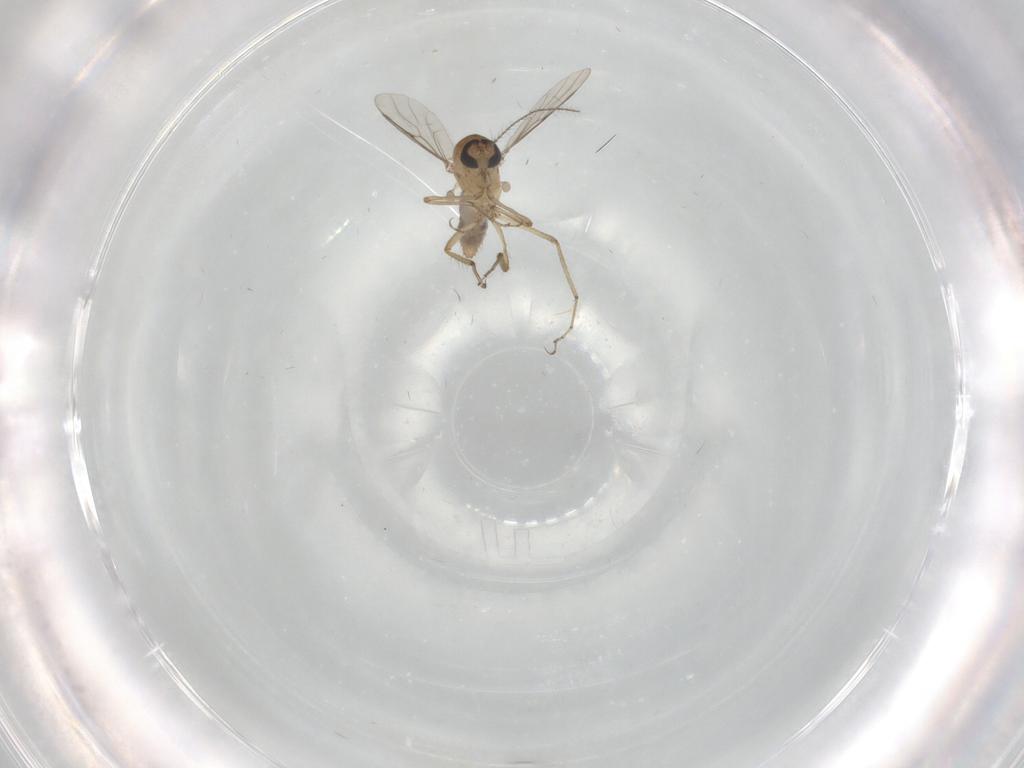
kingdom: Animalia
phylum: Arthropoda
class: Insecta
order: Diptera
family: Ceratopogonidae
